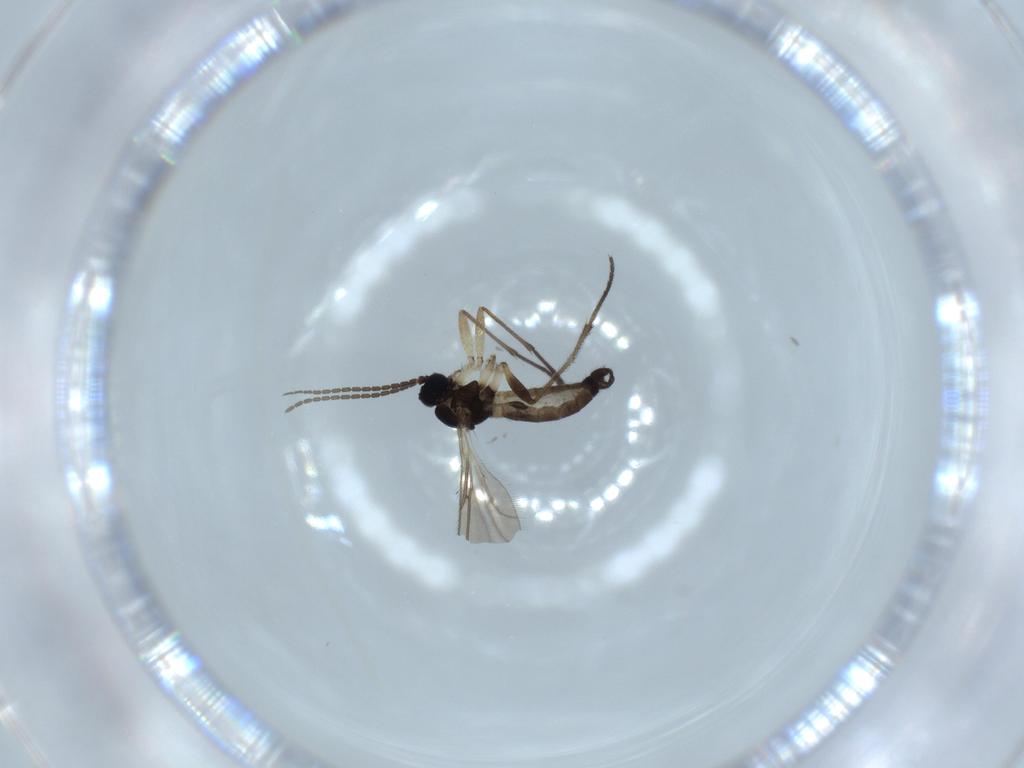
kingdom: Animalia
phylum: Arthropoda
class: Insecta
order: Diptera
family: Sciaridae
